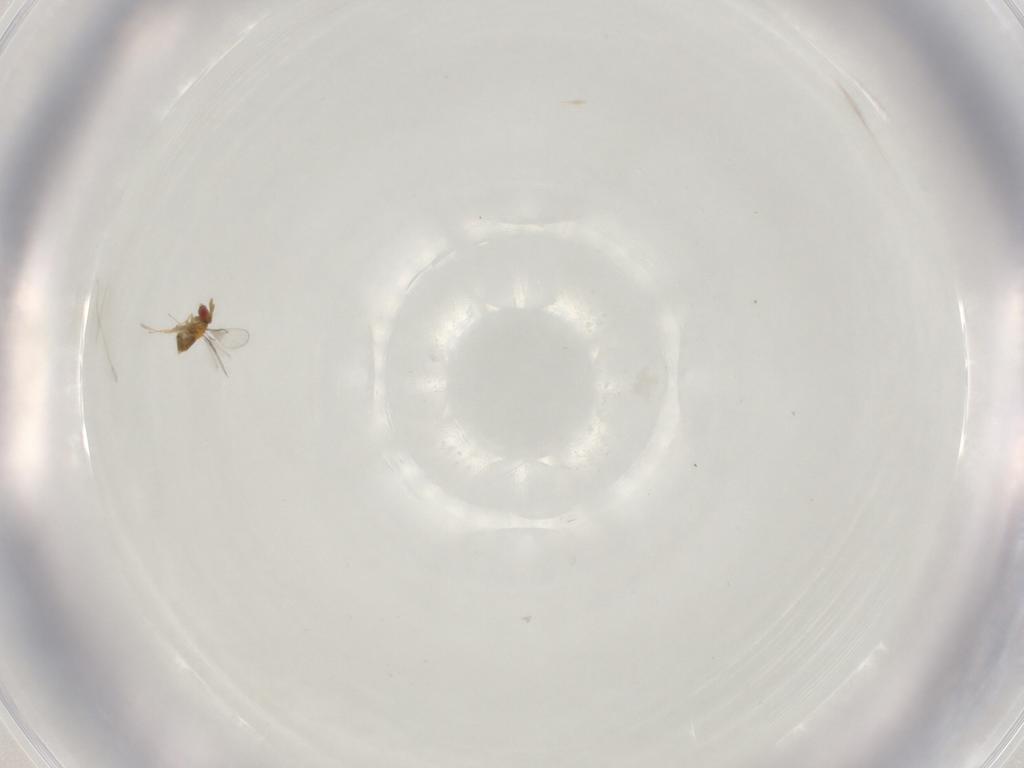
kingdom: Animalia
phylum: Arthropoda
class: Insecta
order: Hymenoptera
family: Trichogrammatidae
